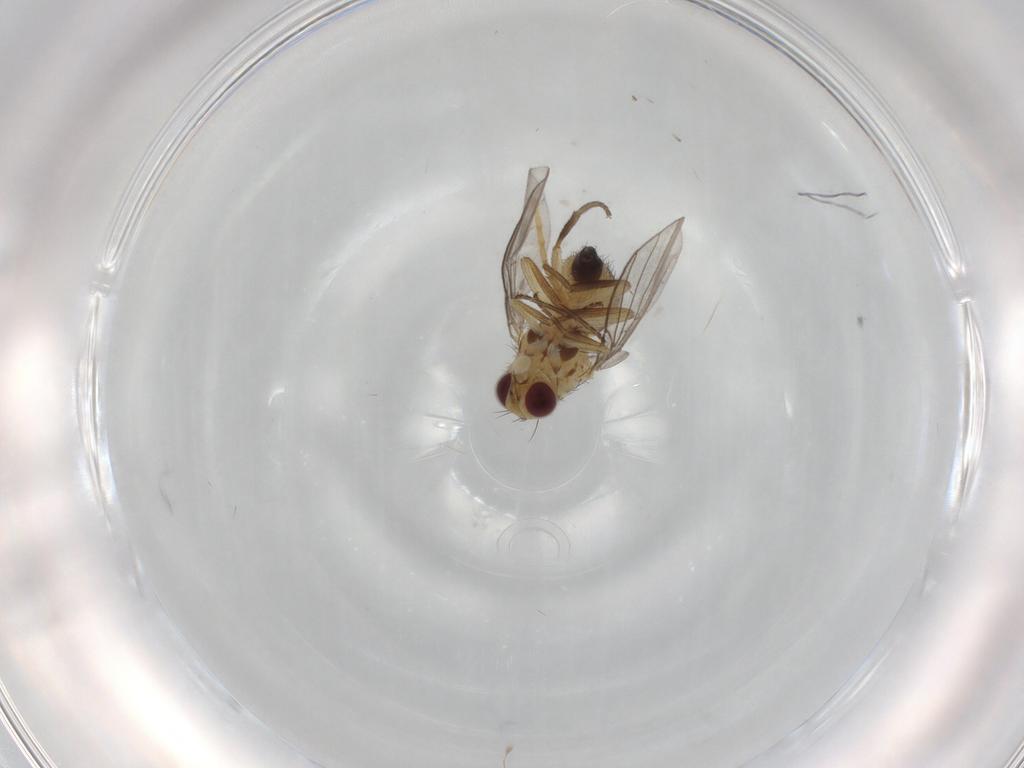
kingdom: Animalia
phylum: Arthropoda
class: Insecta
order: Diptera
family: Agromyzidae
